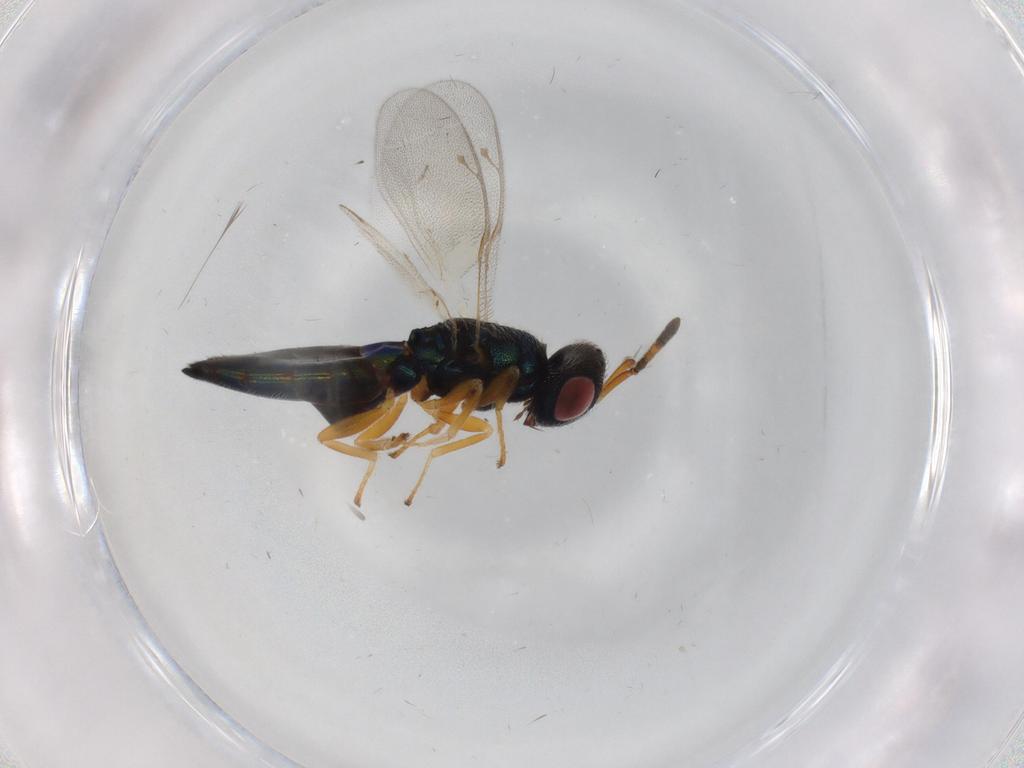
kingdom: Animalia
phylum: Arthropoda
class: Insecta
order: Hymenoptera
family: Pteromalidae
